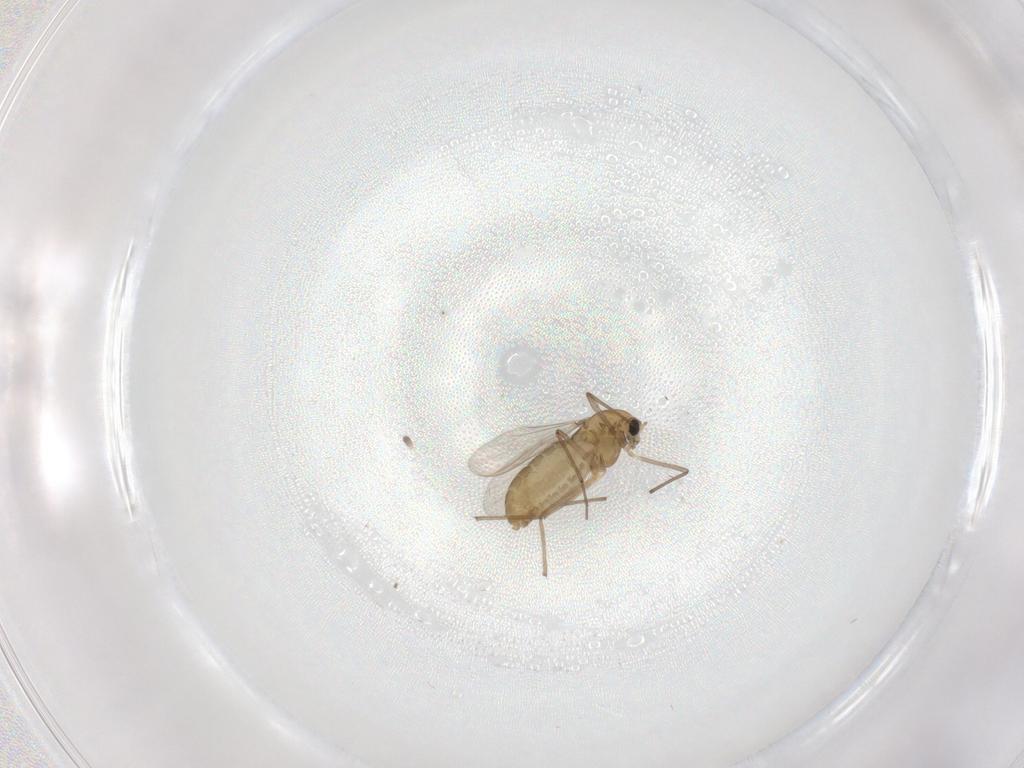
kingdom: Animalia
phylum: Arthropoda
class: Insecta
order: Diptera
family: Chironomidae
